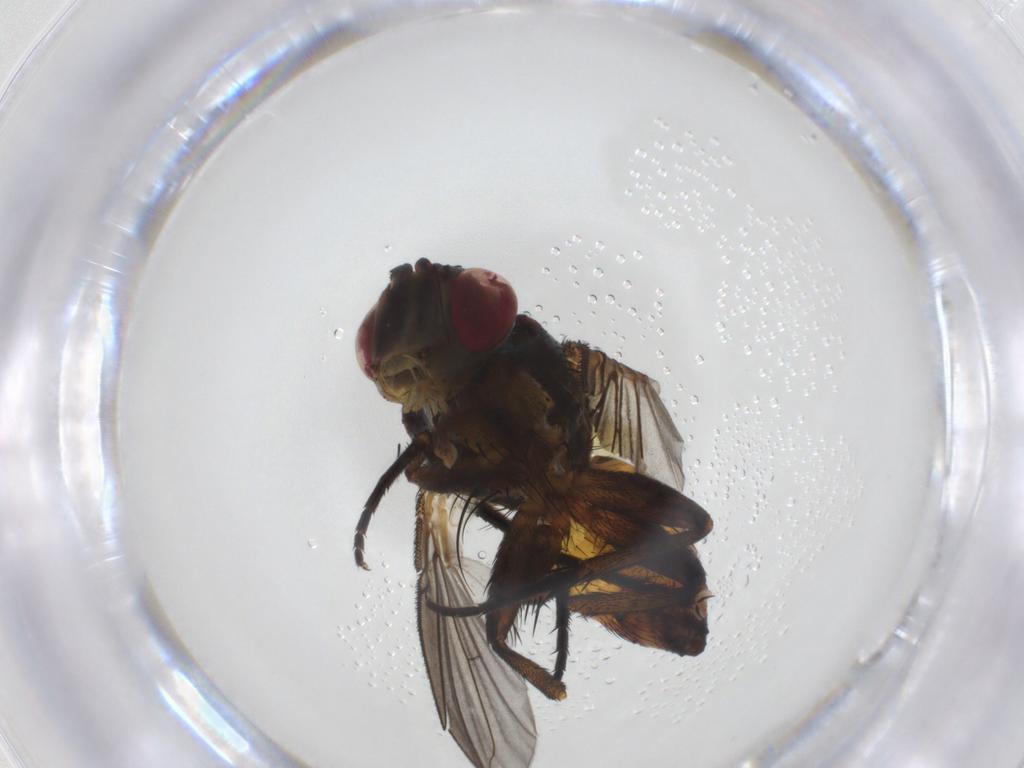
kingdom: Animalia
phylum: Arthropoda
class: Insecta
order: Diptera
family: Tachinidae
